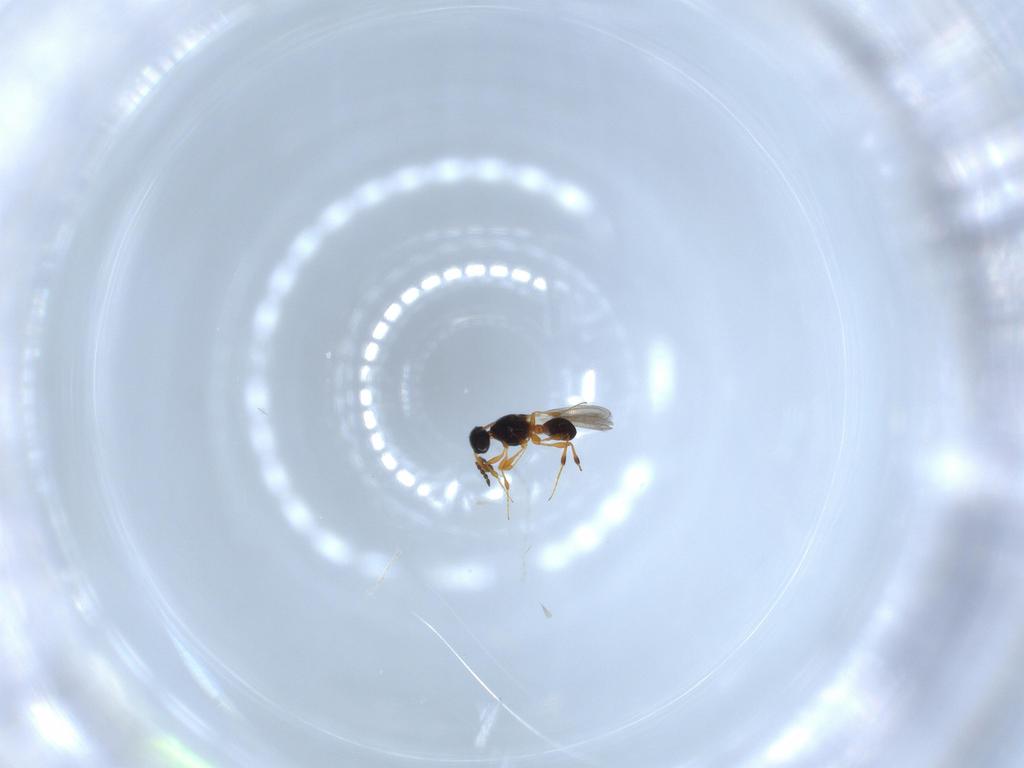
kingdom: Animalia
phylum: Arthropoda
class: Insecta
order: Hymenoptera
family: Platygastridae
